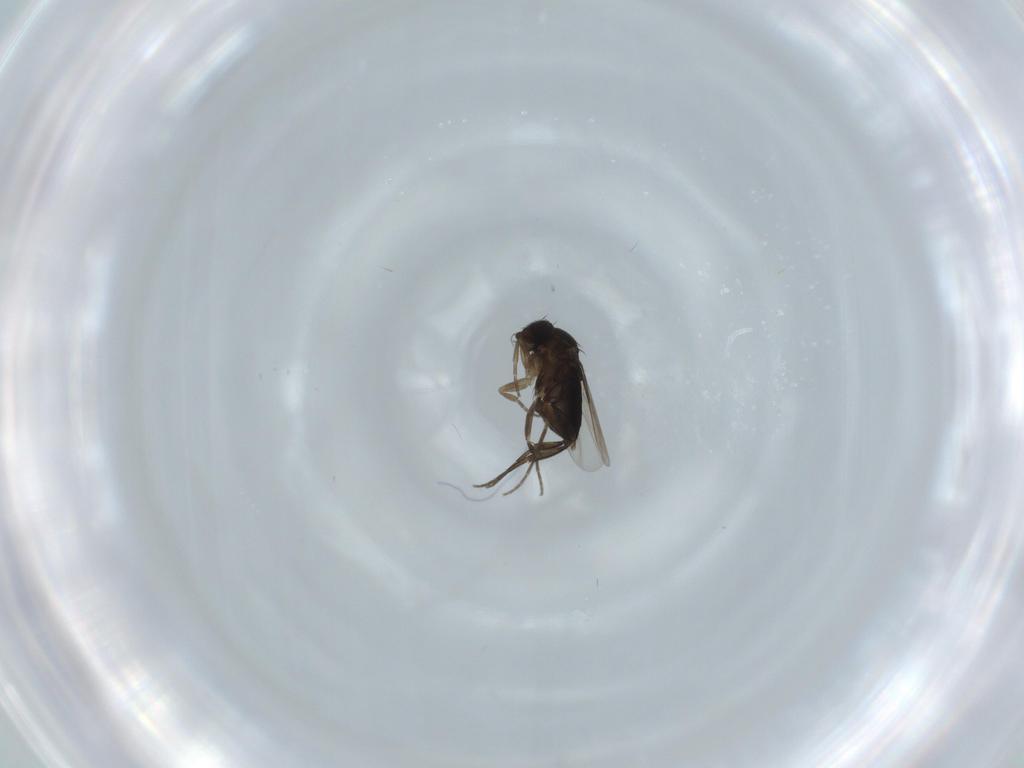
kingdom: Animalia
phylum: Arthropoda
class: Insecta
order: Diptera
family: Phoridae
